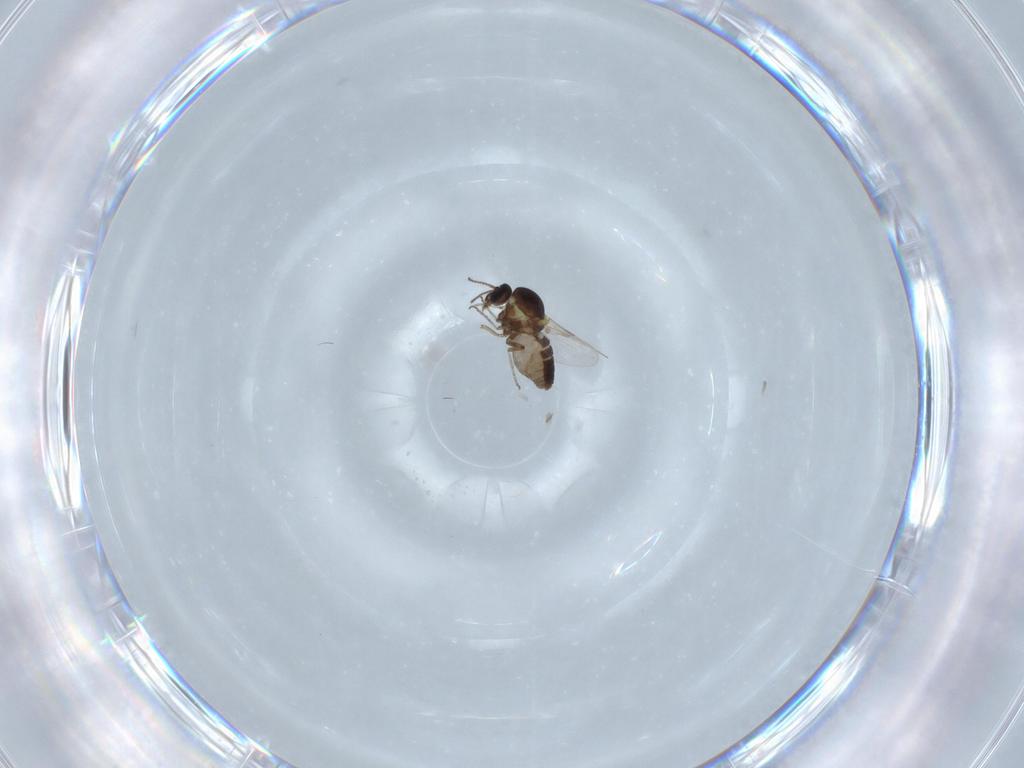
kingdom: Animalia
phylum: Arthropoda
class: Insecta
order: Diptera
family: Ceratopogonidae
